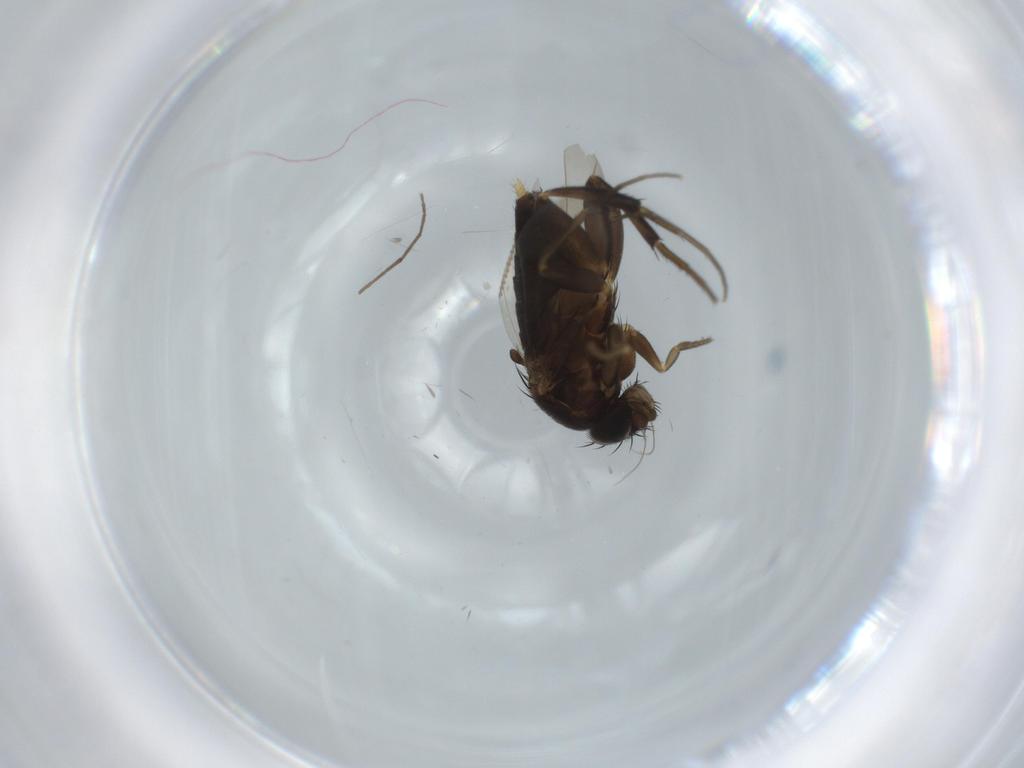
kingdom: Animalia
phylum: Arthropoda
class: Insecta
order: Diptera
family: Phoridae
